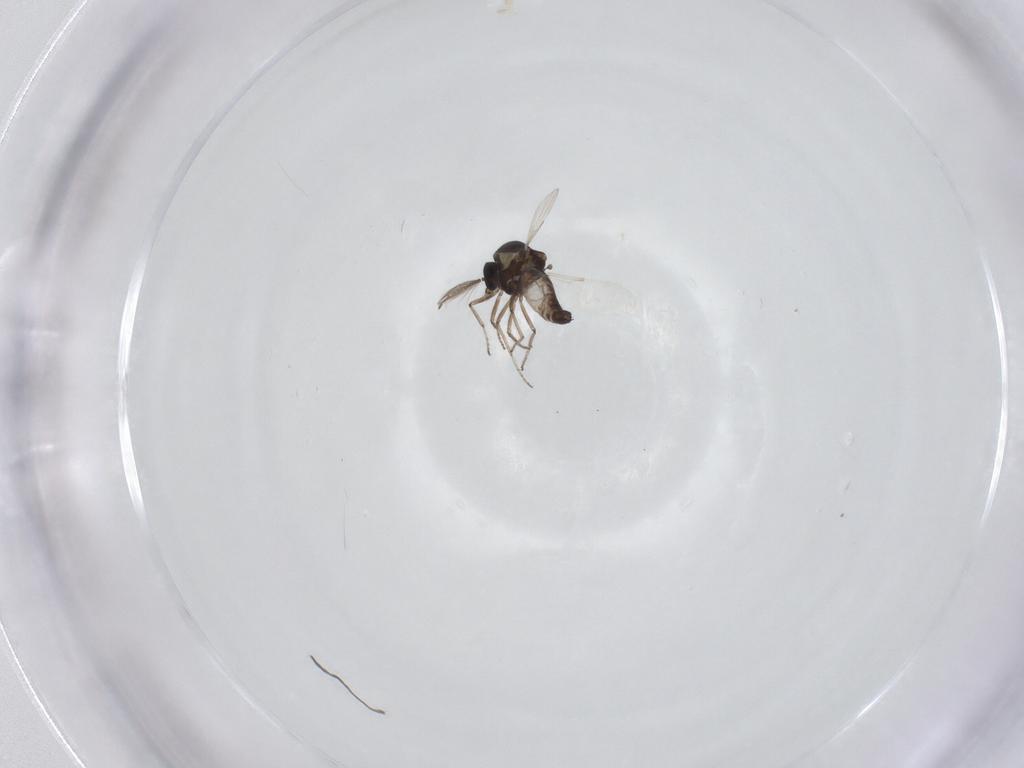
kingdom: Animalia
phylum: Arthropoda
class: Insecta
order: Diptera
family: Ceratopogonidae
